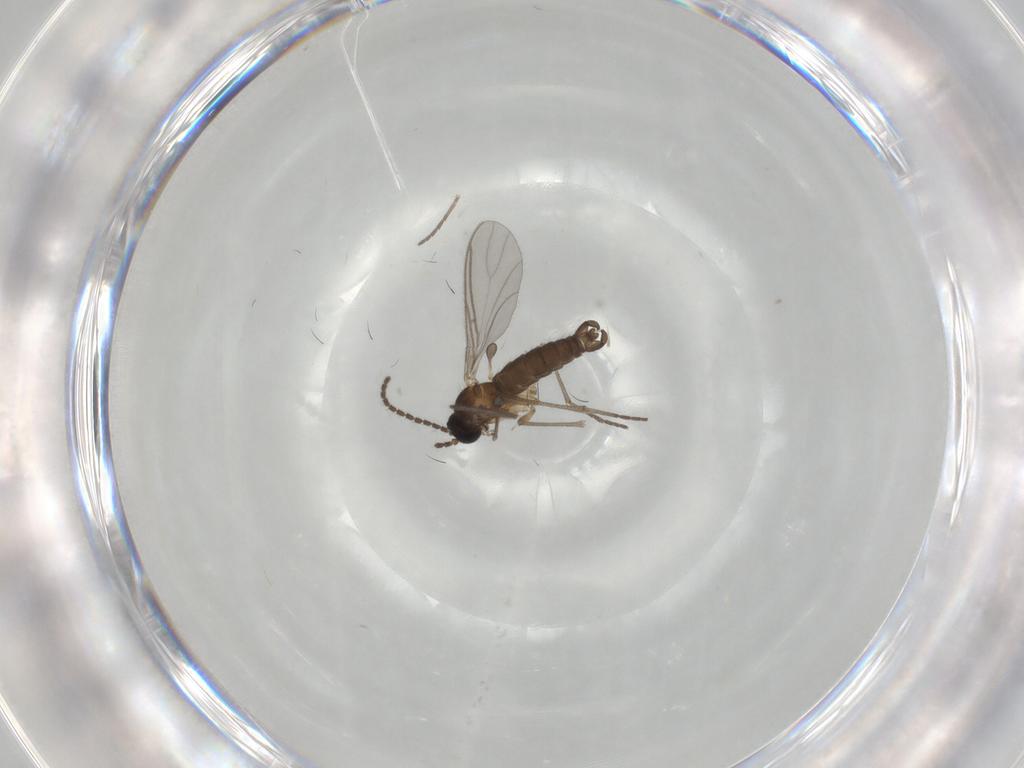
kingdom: Animalia
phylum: Arthropoda
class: Insecta
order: Diptera
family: Sciaridae
